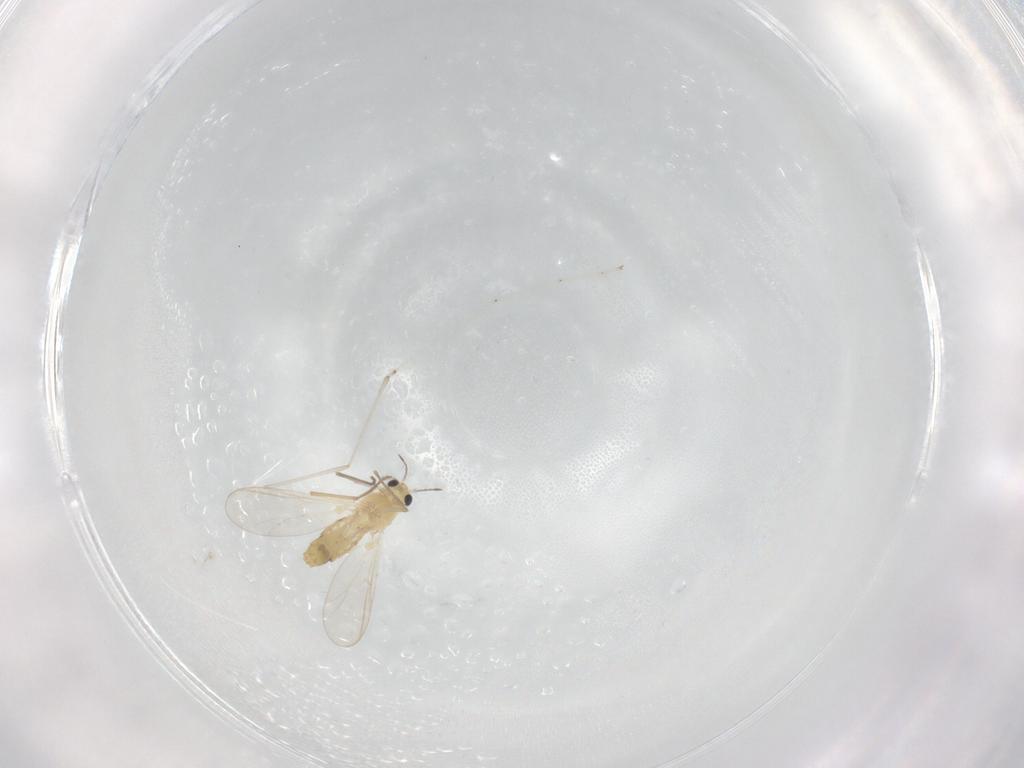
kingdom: Animalia
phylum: Arthropoda
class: Insecta
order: Diptera
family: Chironomidae
